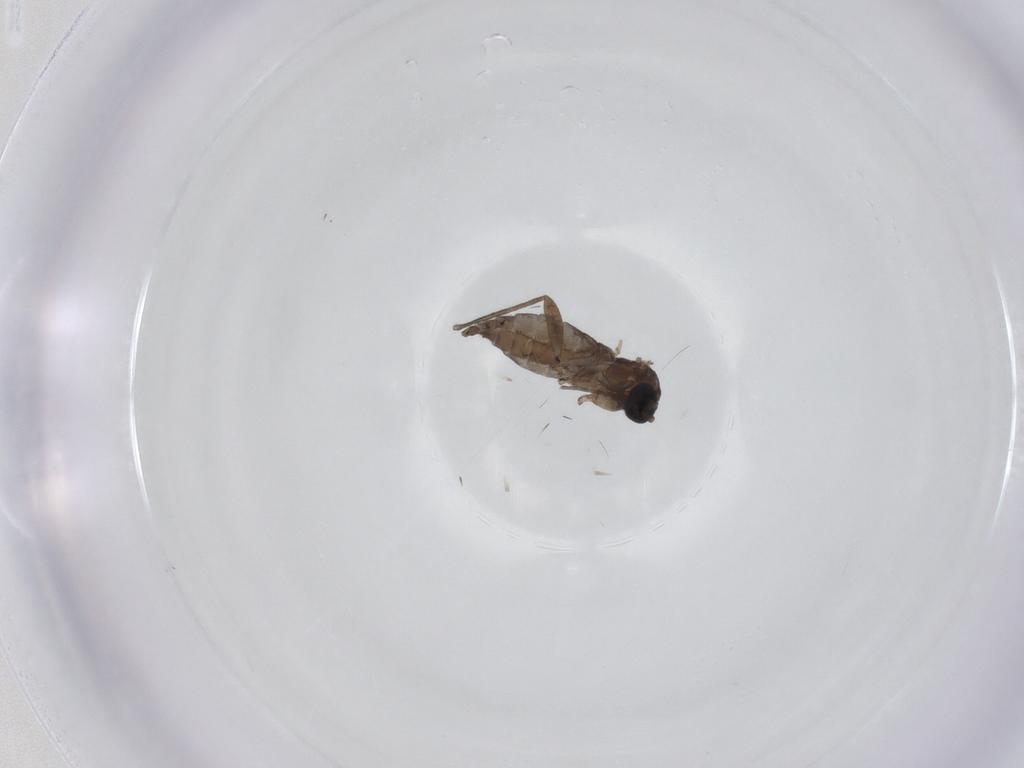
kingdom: Animalia
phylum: Arthropoda
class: Insecta
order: Diptera
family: Sciaridae
